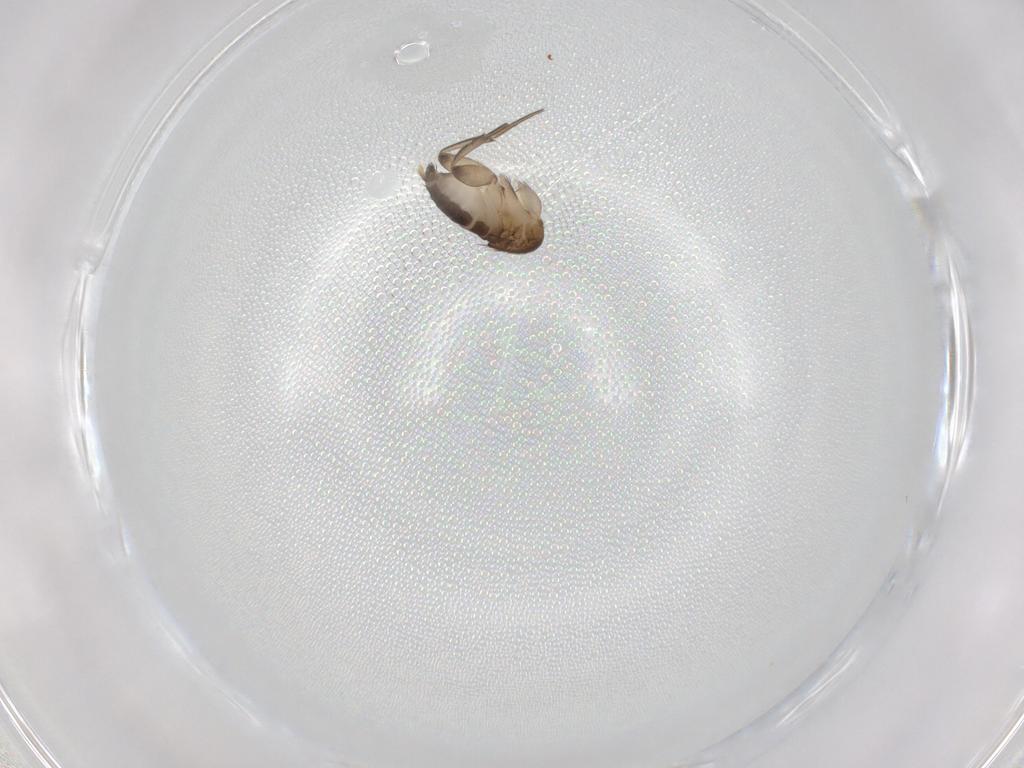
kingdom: Animalia
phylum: Arthropoda
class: Insecta
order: Diptera
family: Phoridae
